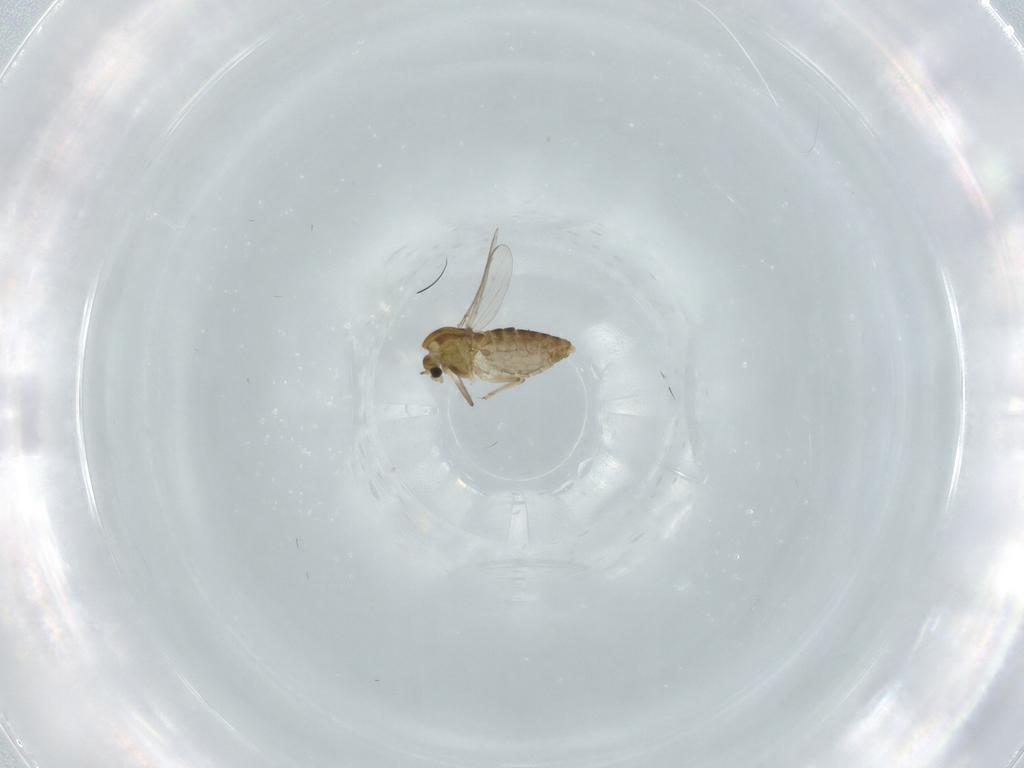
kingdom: Animalia
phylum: Arthropoda
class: Insecta
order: Diptera
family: Chironomidae
